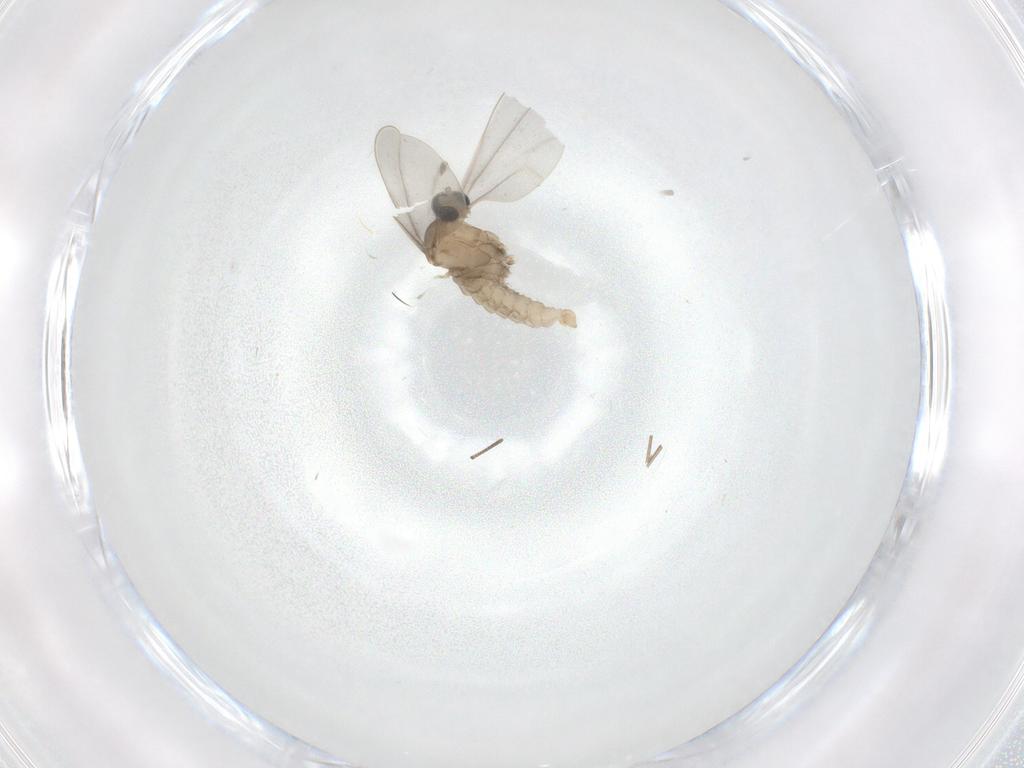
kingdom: Animalia
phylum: Arthropoda
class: Insecta
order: Diptera
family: Cecidomyiidae
